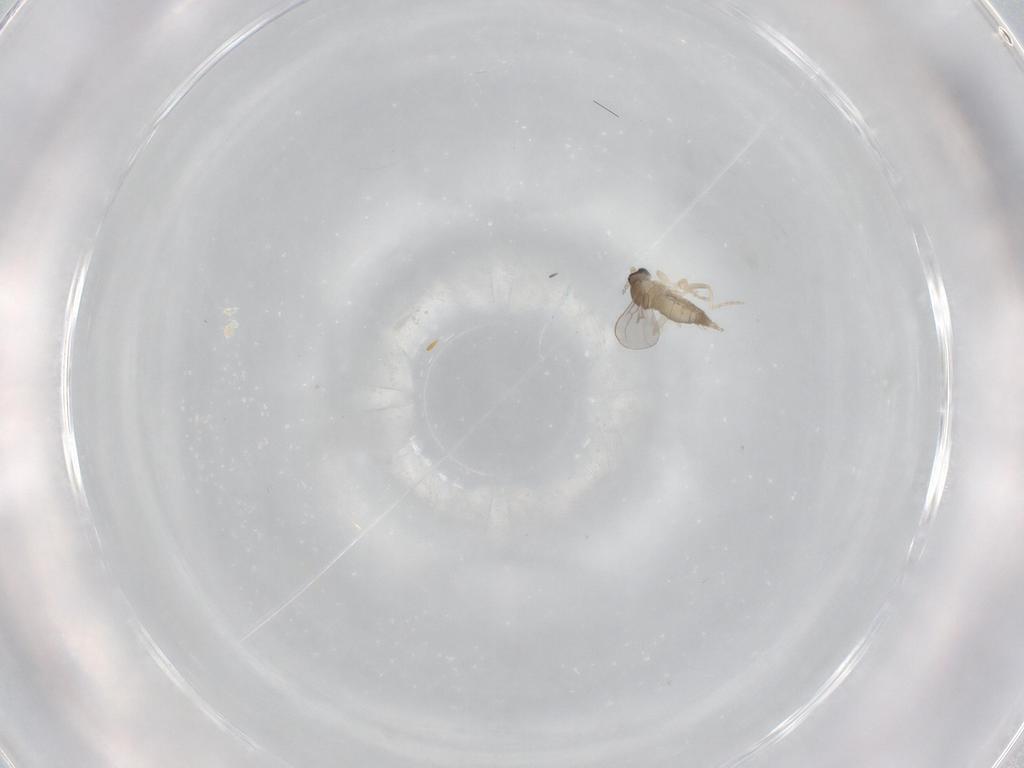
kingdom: Animalia
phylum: Arthropoda
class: Insecta
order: Diptera
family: Cecidomyiidae
